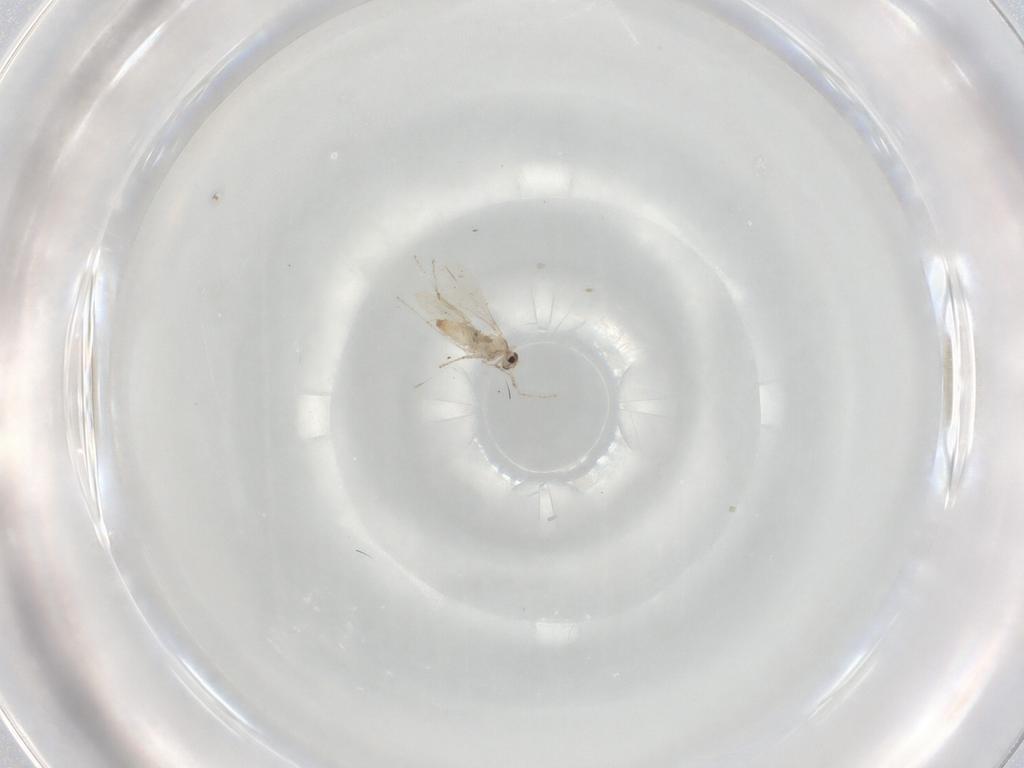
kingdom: Animalia
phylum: Arthropoda
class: Insecta
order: Diptera
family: Cecidomyiidae
